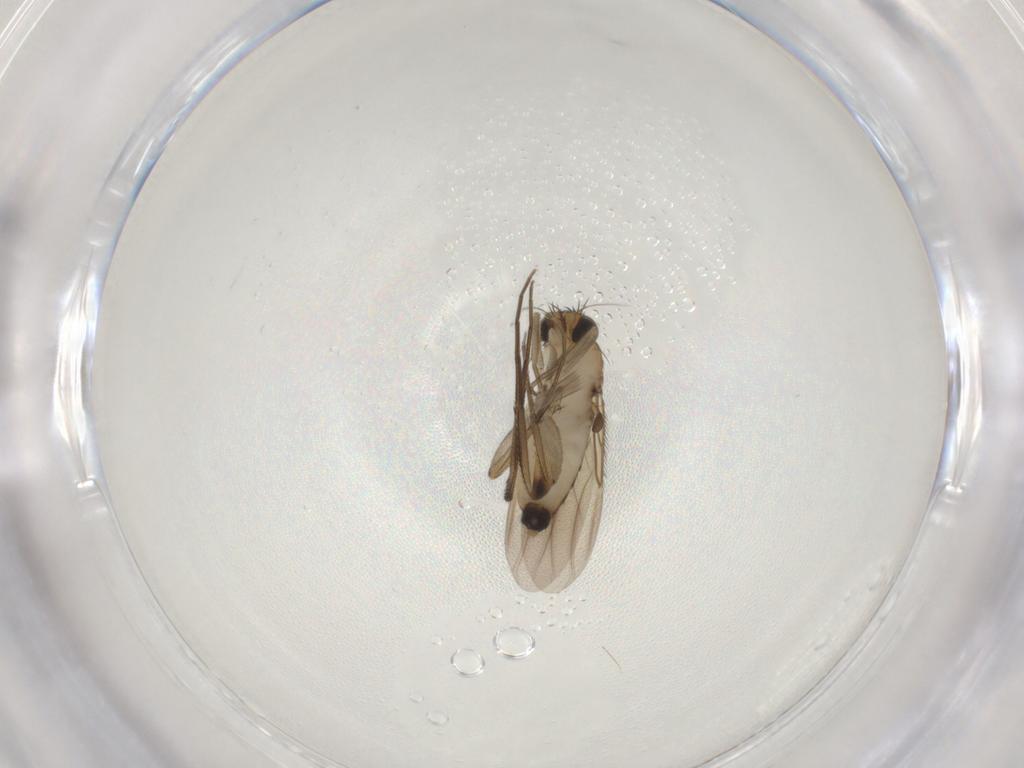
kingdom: Animalia
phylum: Arthropoda
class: Insecta
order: Diptera
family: Phoridae
